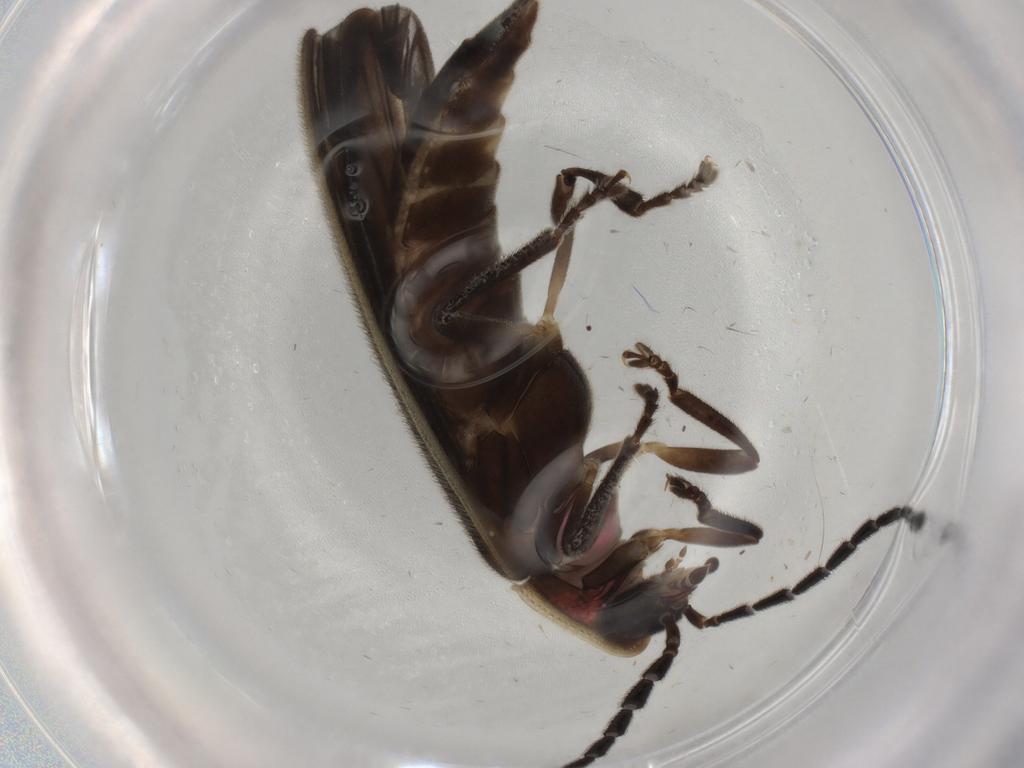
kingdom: Animalia
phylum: Arthropoda
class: Insecta
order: Coleoptera
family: Lampyridae
